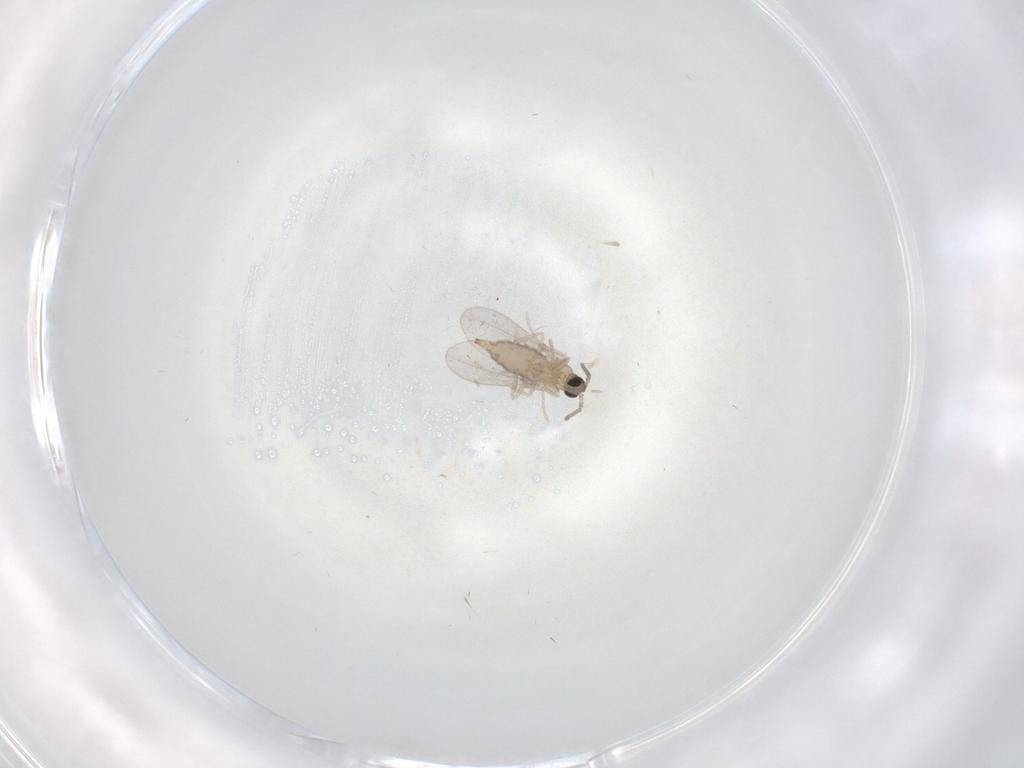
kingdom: Animalia
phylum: Arthropoda
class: Insecta
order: Diptera
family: Cecidomyiidae
